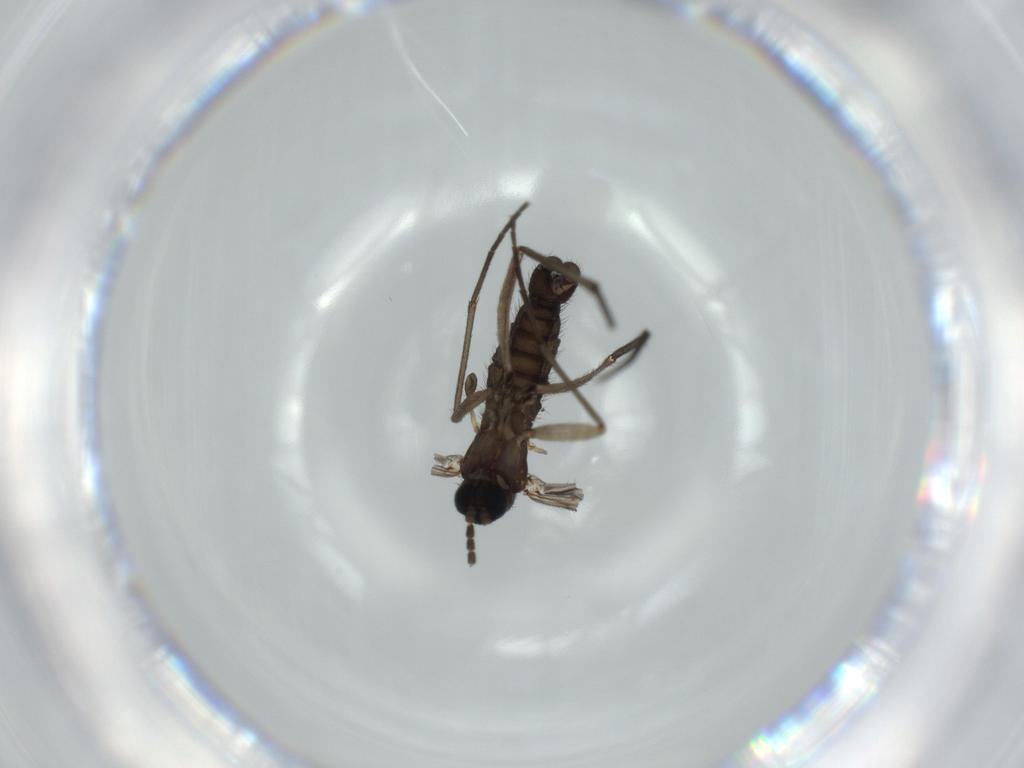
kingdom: Animalia
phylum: Arthropoda
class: Insecta
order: Diptera
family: Sciaridae
